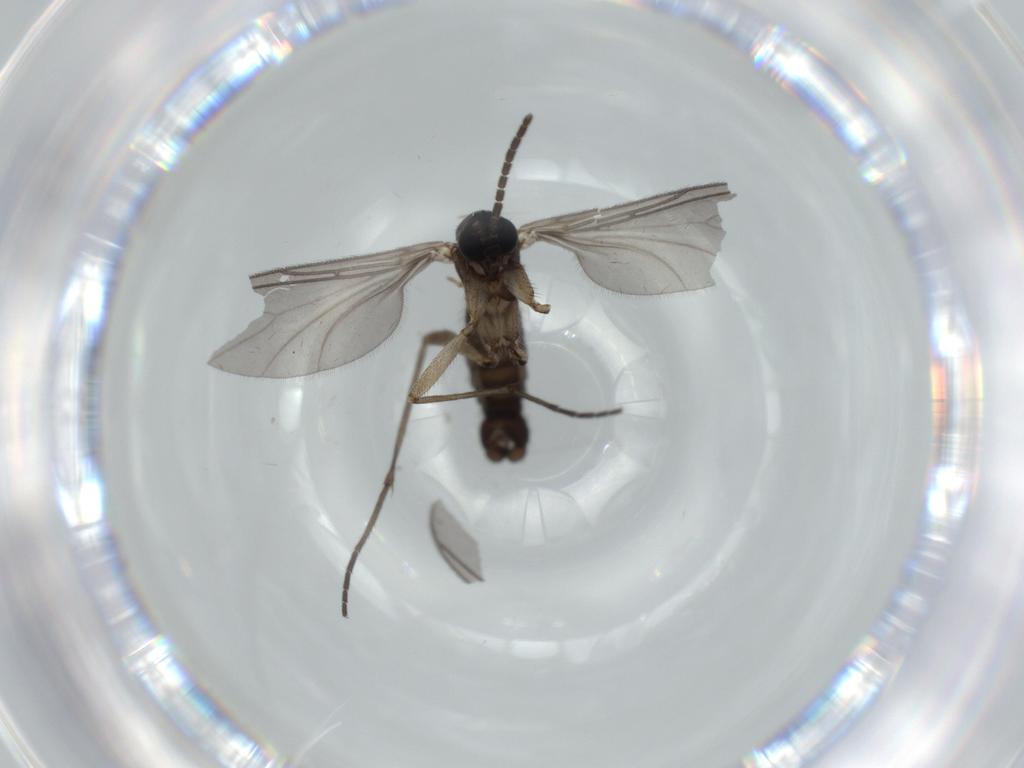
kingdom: Animalia
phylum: Arthropoda
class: Insecta
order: Diptera
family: Sciaridae
